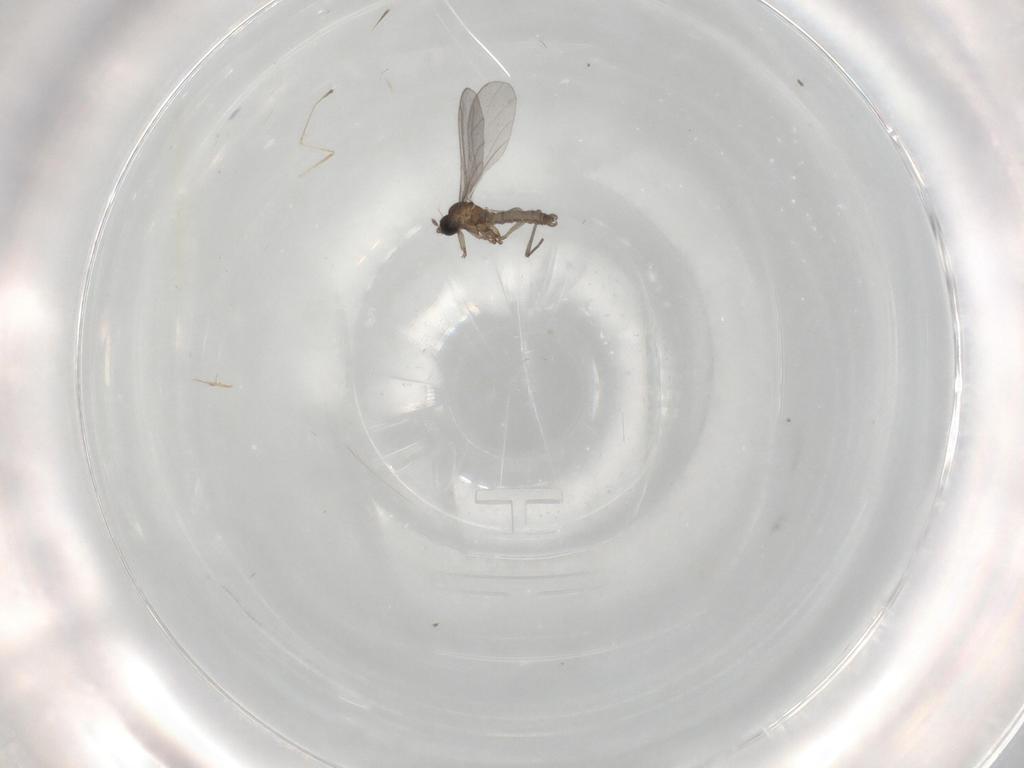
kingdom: Animalia
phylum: Arthropoda
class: Insecta
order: Diptera
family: Cecidomyiidae
